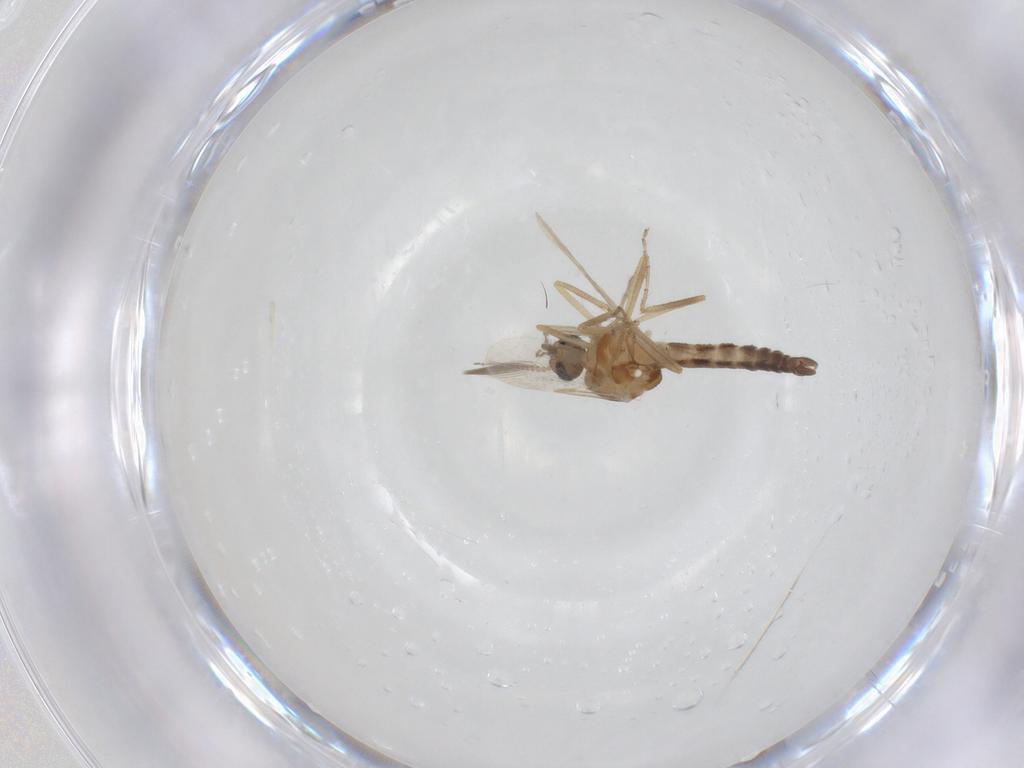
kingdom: Animalia
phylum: Arthropoda
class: Insecta
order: Diptera
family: Ceratopogonidae
